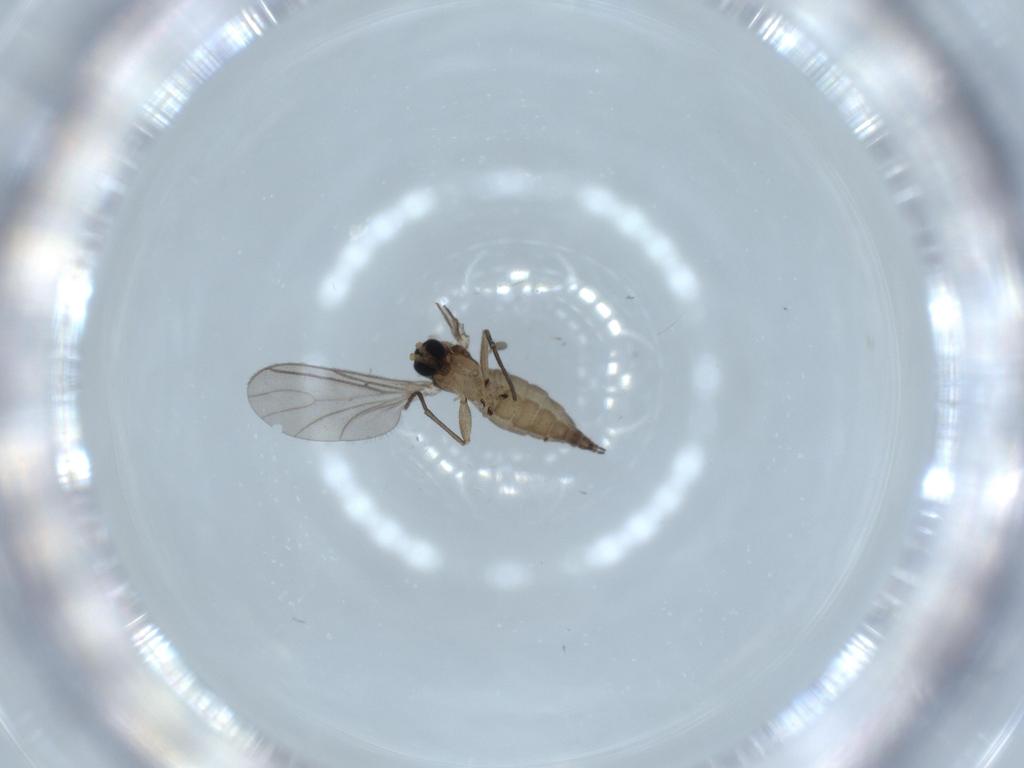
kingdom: Animalia
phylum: Arthropoda
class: Insecta
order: Diptera
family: Sciaridae
